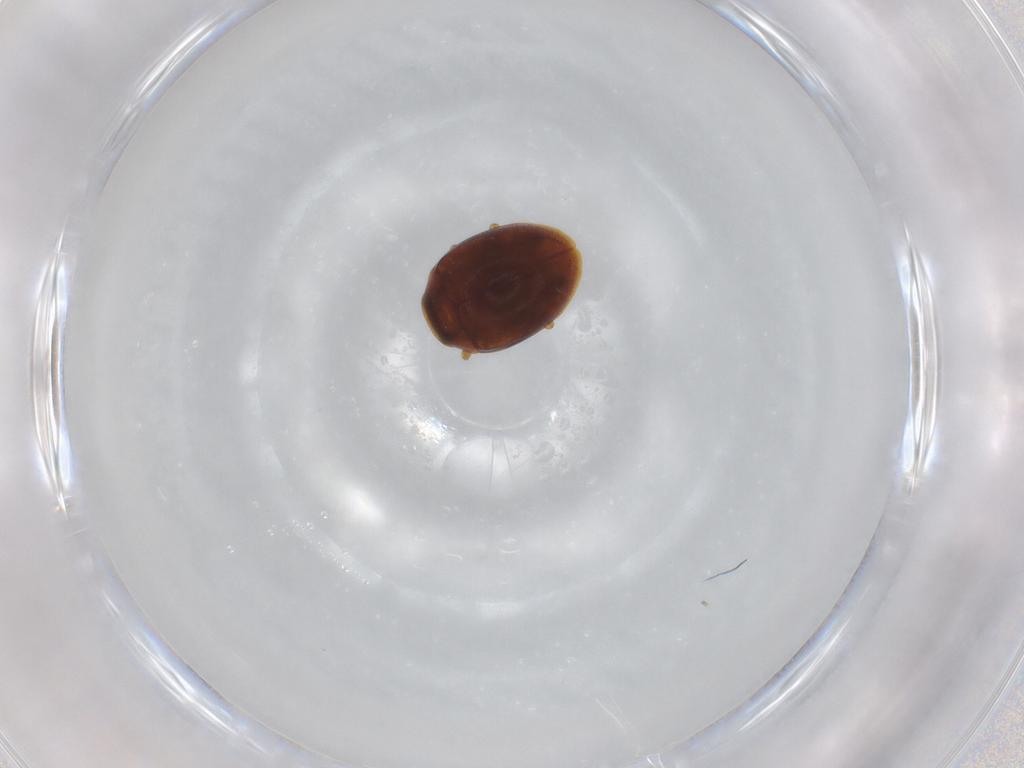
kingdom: Animalia
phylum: Arthropoda
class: Insecta
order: Coleoptera
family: Coccinellidae
